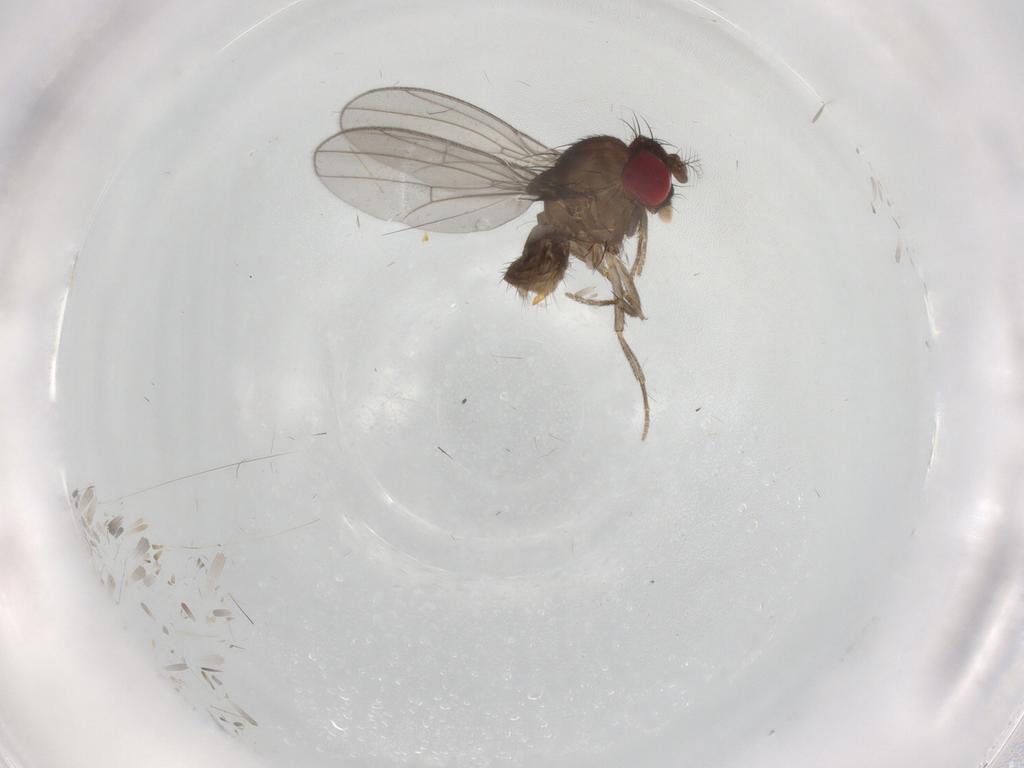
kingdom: Animalia
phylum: Arthropoda
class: Insecta
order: Diptera
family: Drosophilidae
